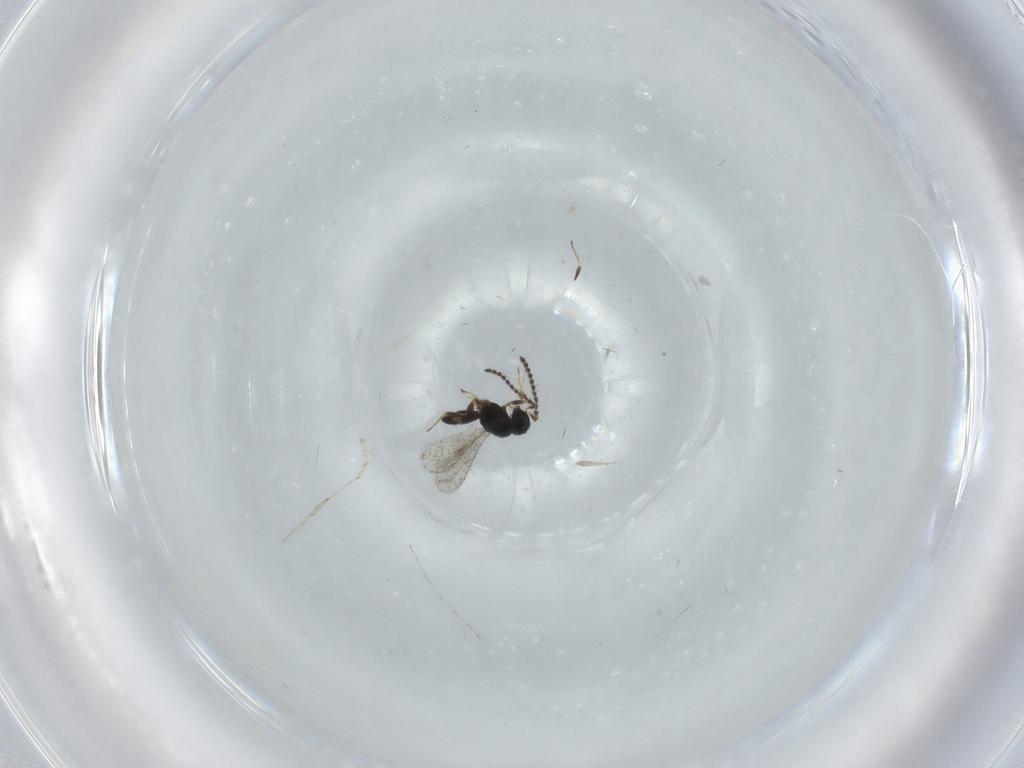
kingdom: Animalia
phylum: Arthropoda
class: Insecta
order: Hymenoptera
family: Scelionidae
